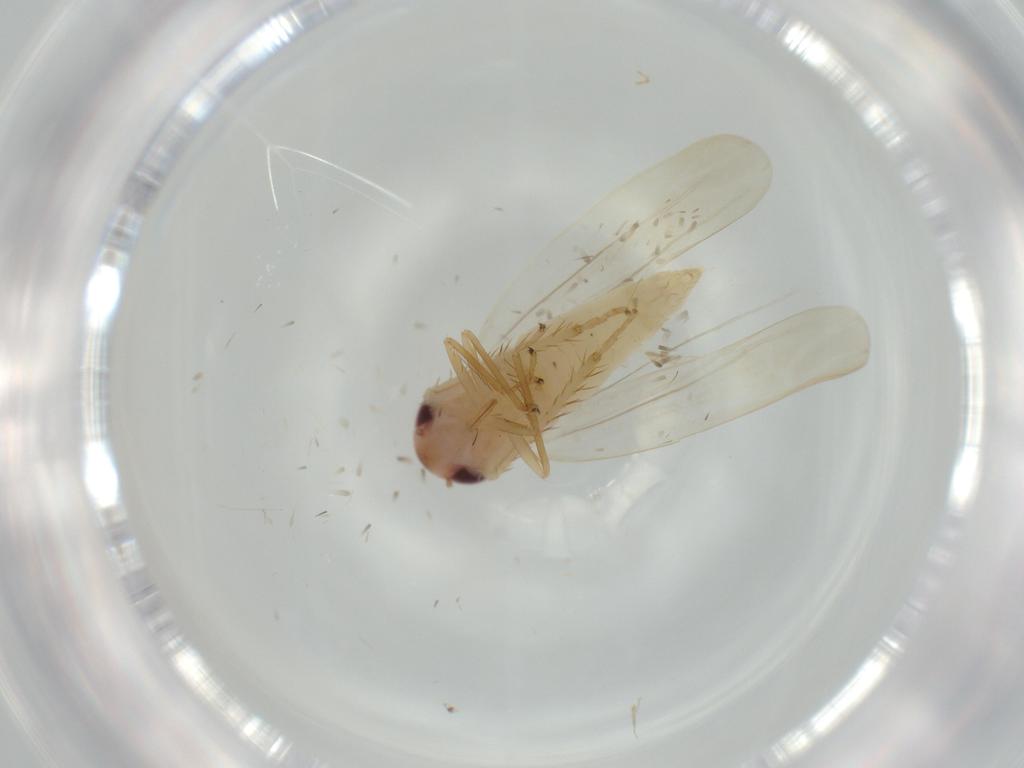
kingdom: Animalia
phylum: Arthropoda
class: Insecta
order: Hemiptera
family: Cicadellidae
